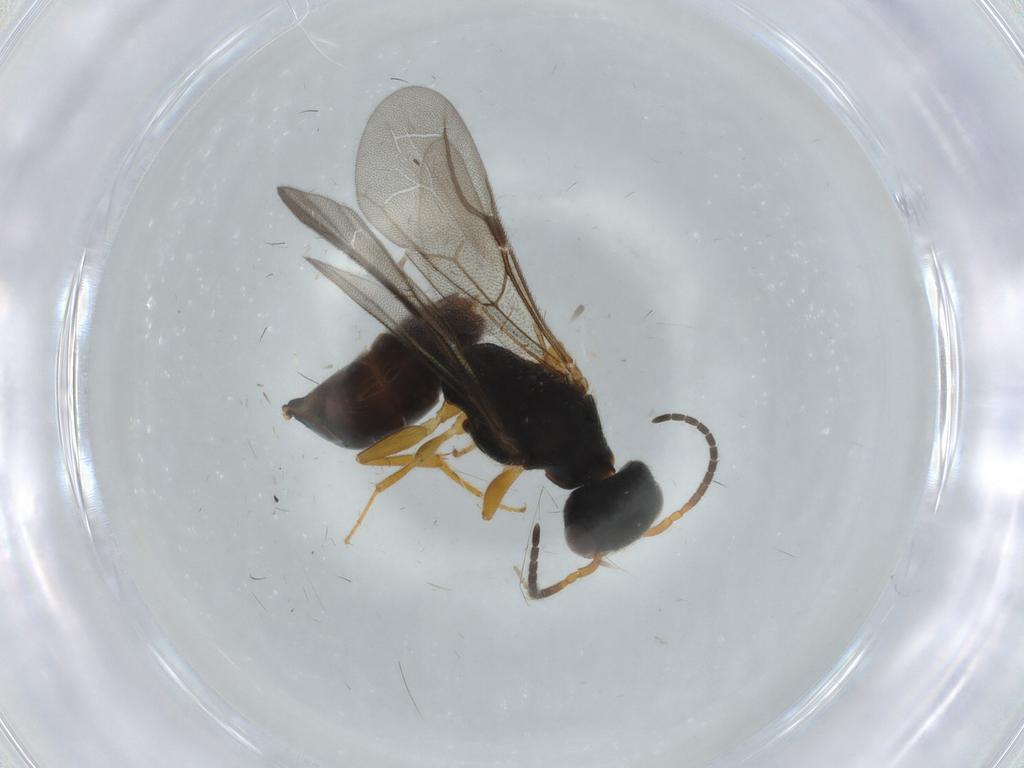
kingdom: Animalia
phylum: Arthropoda
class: Insecta
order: Hymenoptera
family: Bethylidae
